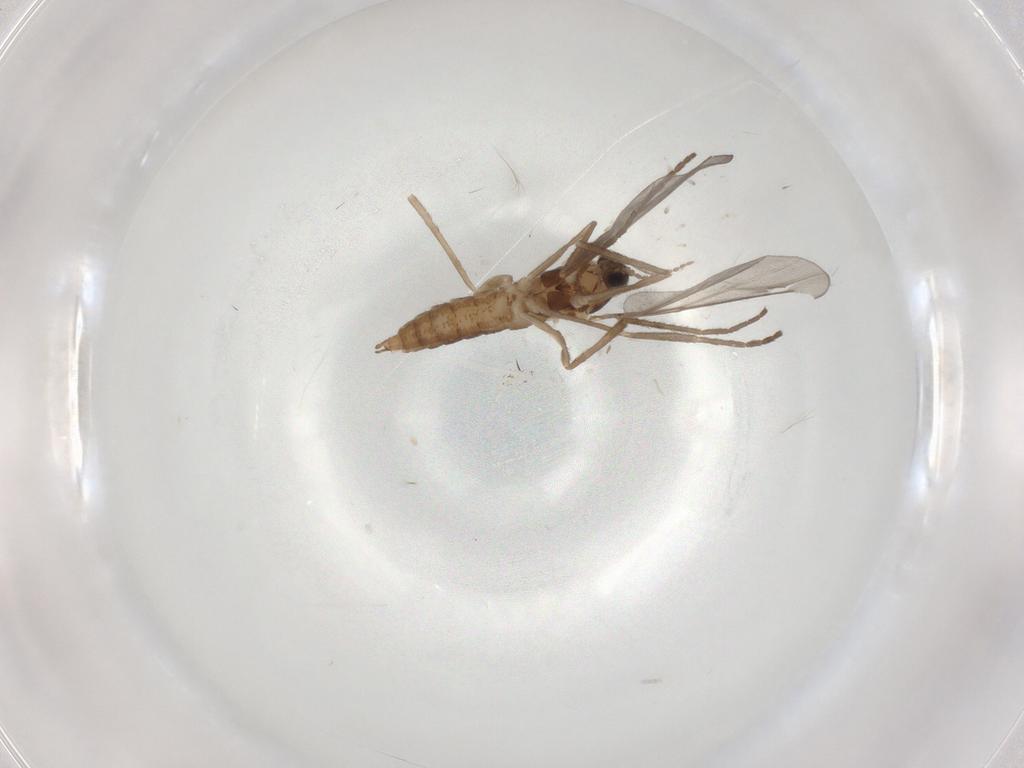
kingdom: Animalia
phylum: Arthropoda
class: Insecta
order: Diptera
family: Cecidomyiidae
